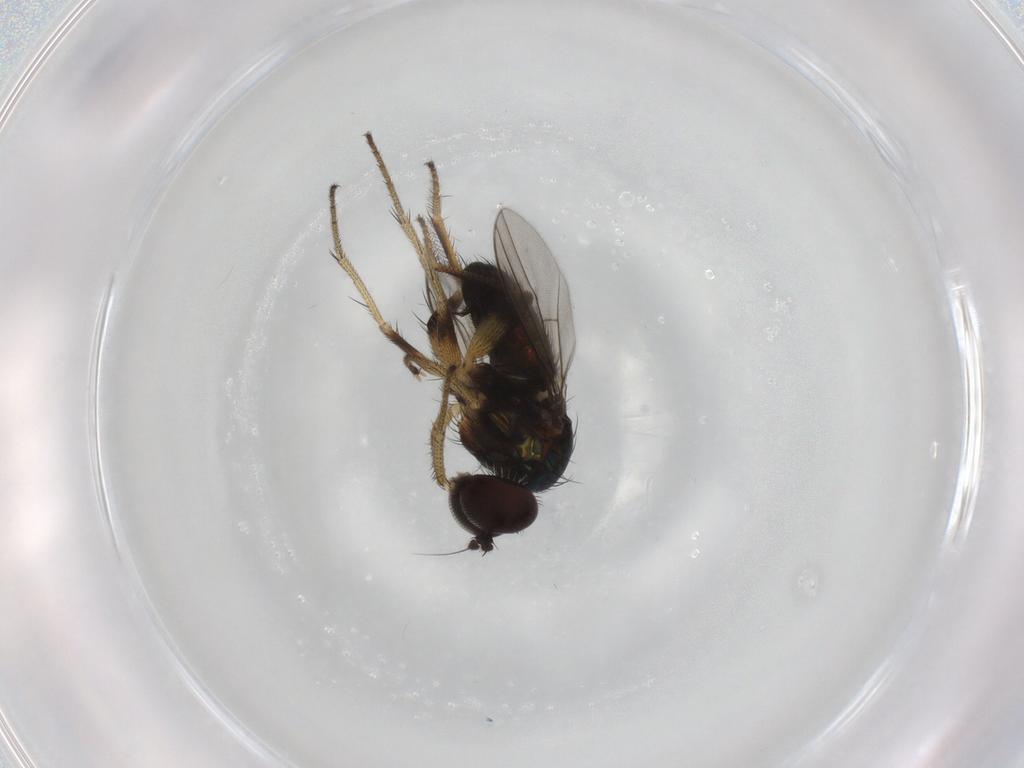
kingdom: Animalia
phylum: Arthropoda
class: Insecta
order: Diptera
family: Dolichopodidae
